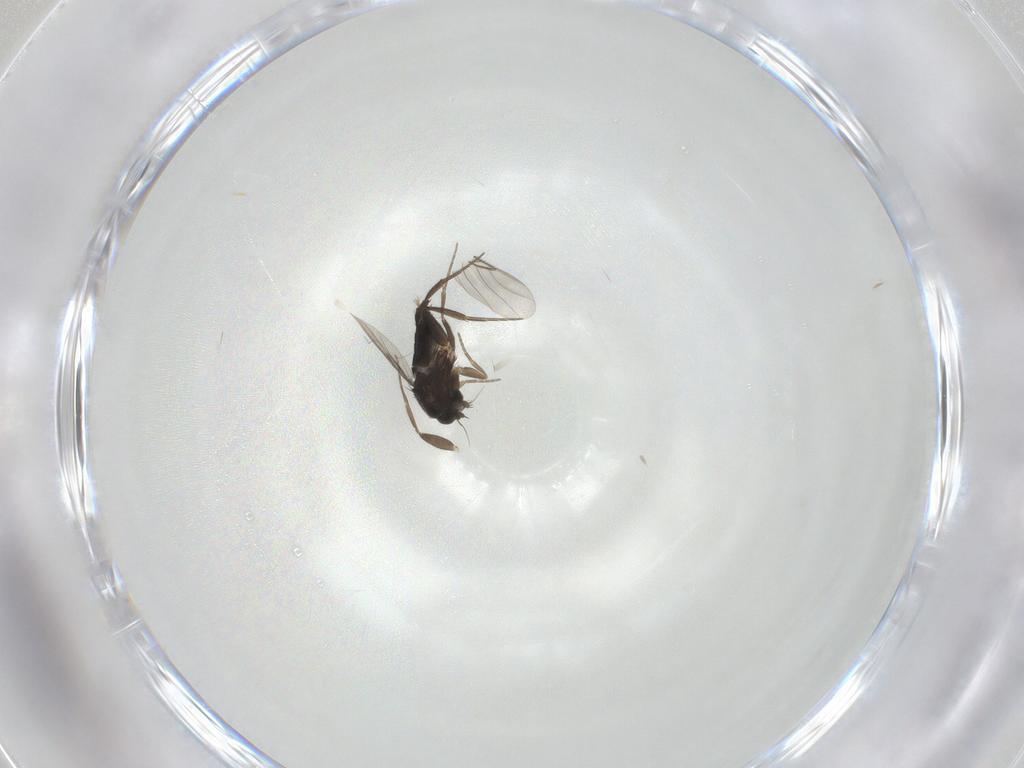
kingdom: Animalia
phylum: Arthropoda
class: Insecta
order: Diptera
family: Phoridae
